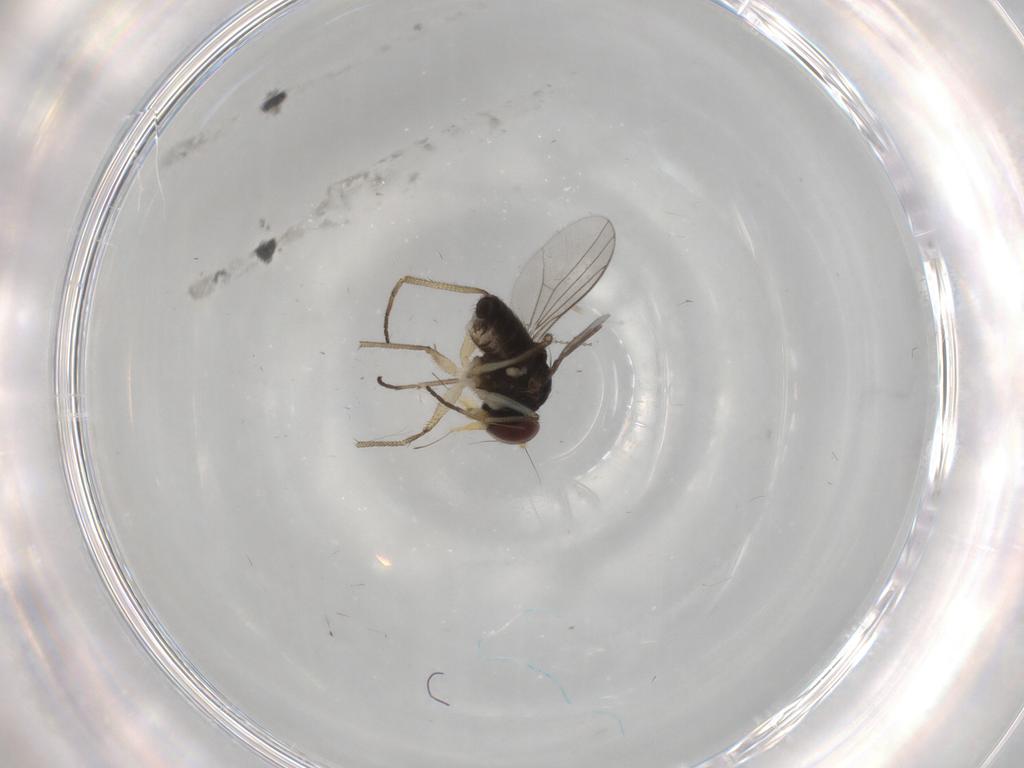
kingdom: Animalia
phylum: Arthropoda
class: Insecta
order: Diptera
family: Dolichopodidae
